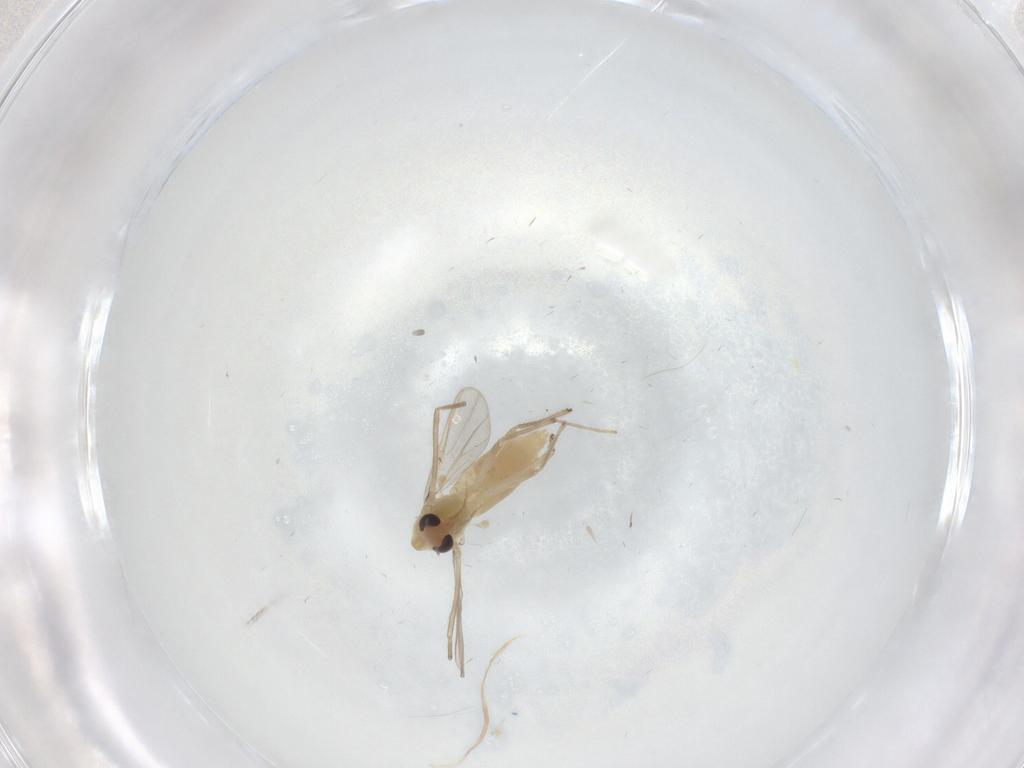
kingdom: Animalia
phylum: Arthropoda
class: Insecta
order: Diptera
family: Chironomidae
